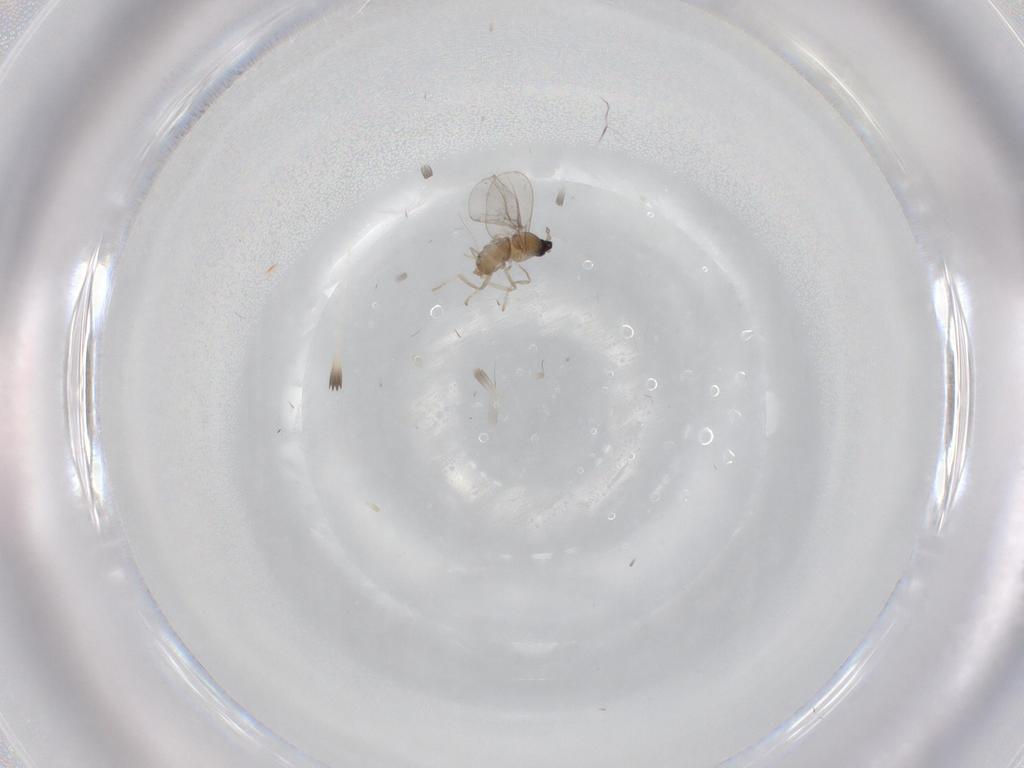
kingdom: Animalia
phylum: Arthropoda
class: Insecta
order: Diptera
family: Cecidomyiidae
